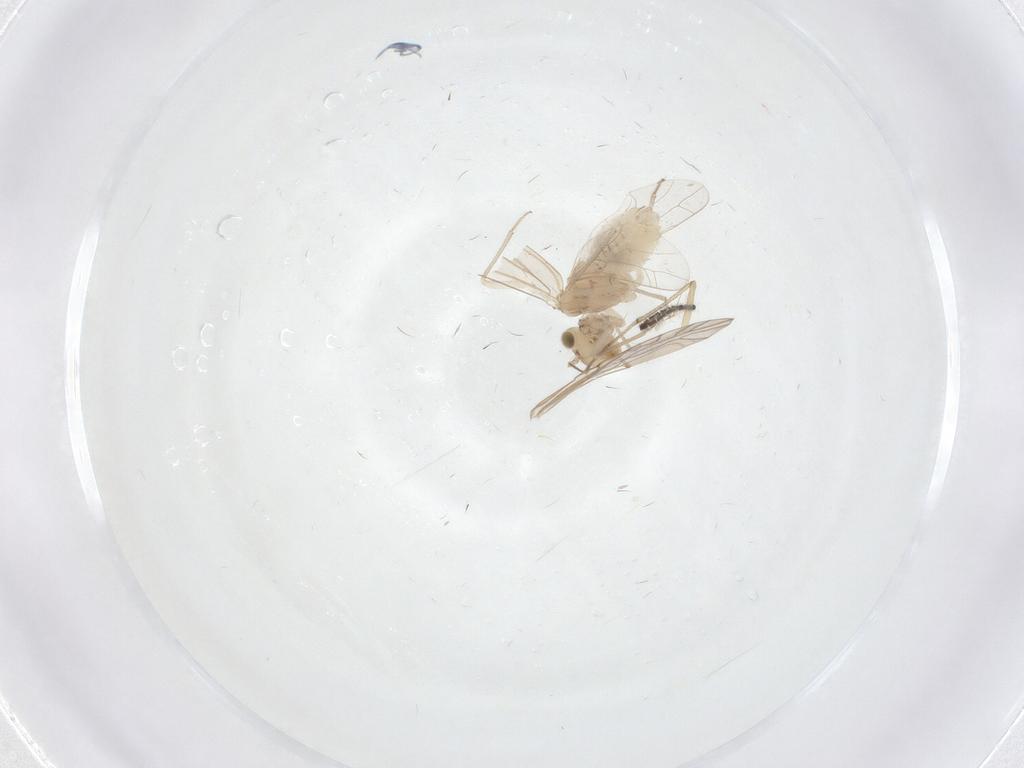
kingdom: Animalia
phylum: Arthropoda
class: Insecta
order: Psocodea
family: Lachesillidae
